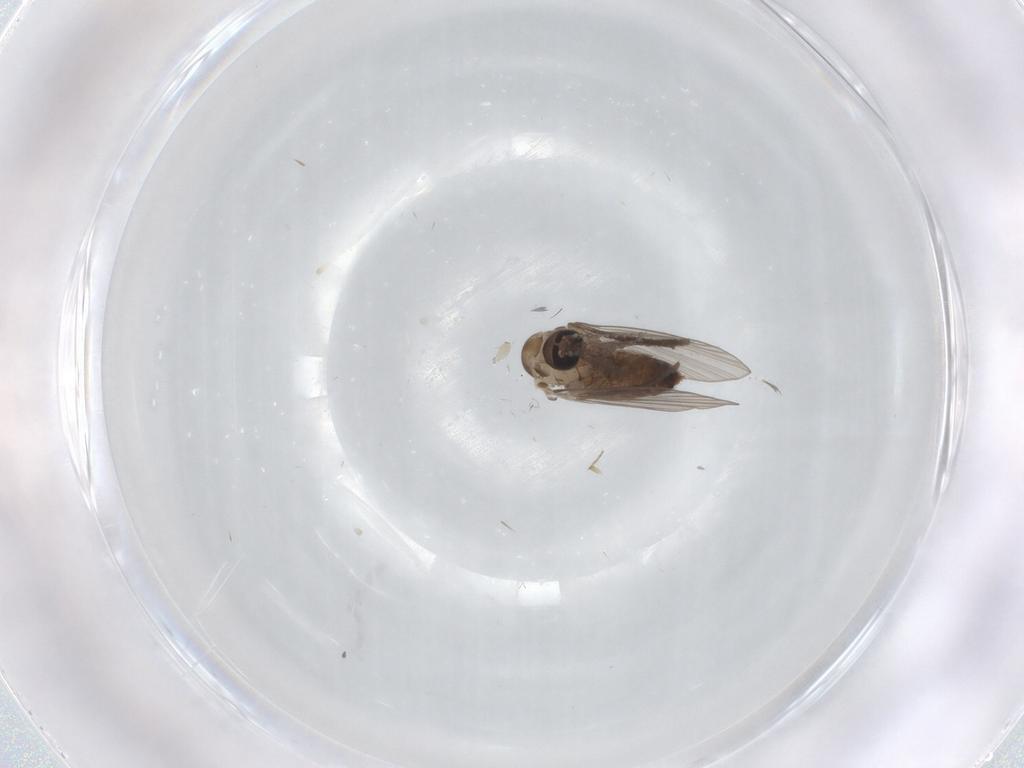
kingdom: Animalia
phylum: Arthropoda
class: Insecta
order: Diptera
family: Psychodidae
